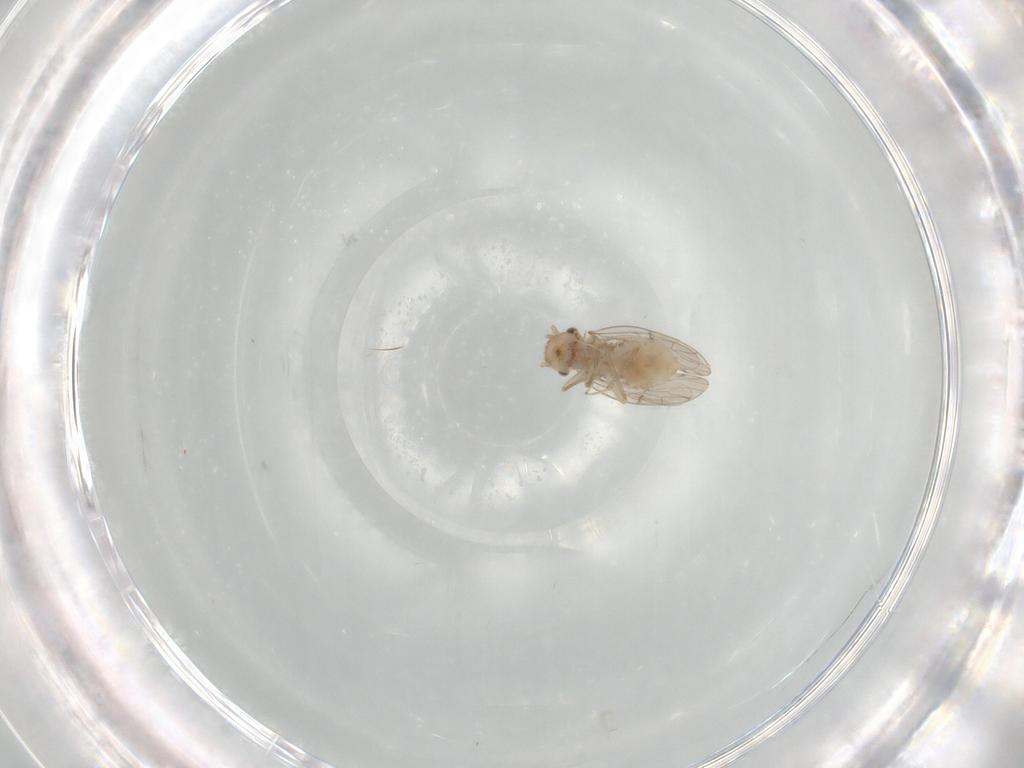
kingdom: Animalia
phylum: Arthropoda
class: Insecta
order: Psocodea
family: Ectopsocidae
